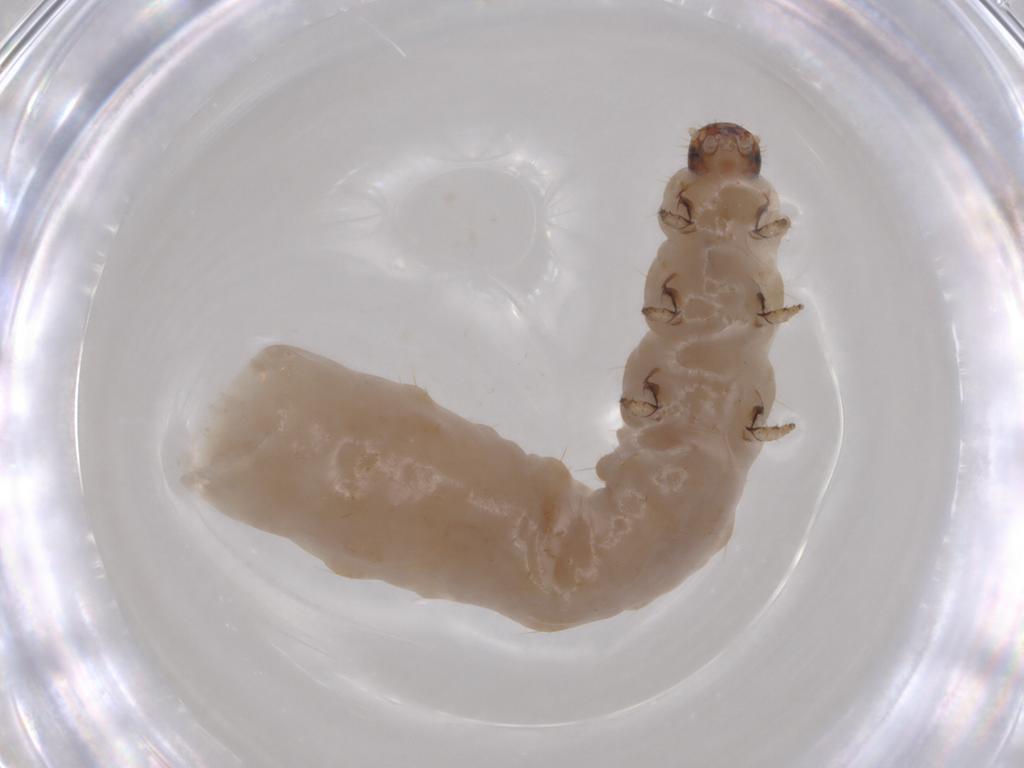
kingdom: Animalia
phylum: Arthropoda
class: Insecta
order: Coleoptera
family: Chrysomelidae
